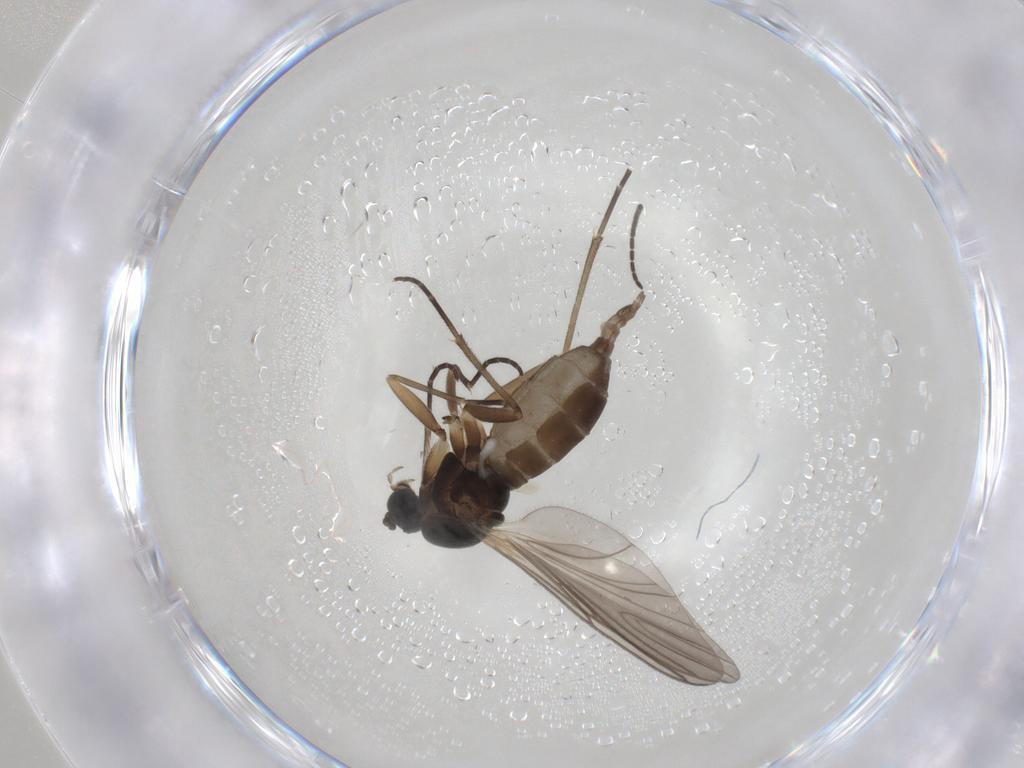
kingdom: Animalia
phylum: Arthropoda
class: Insecta
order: Diptera
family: Sciaridae
